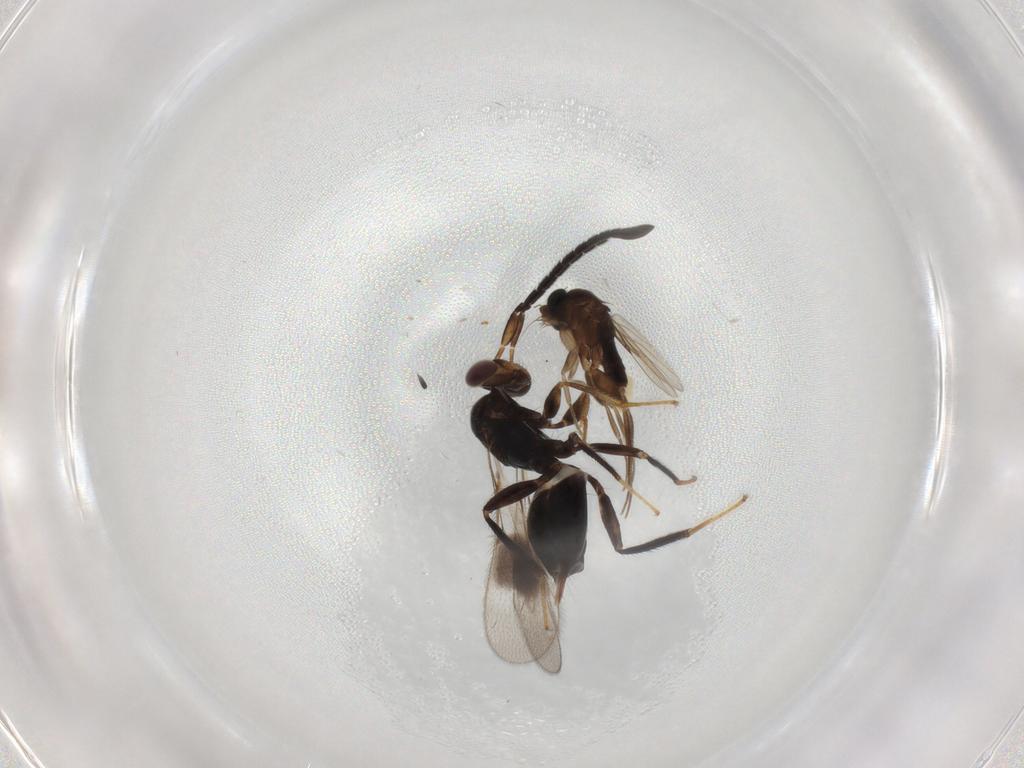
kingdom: Animalia
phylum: Arthropoda
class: Insecta
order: Diptera
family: Phoridae
